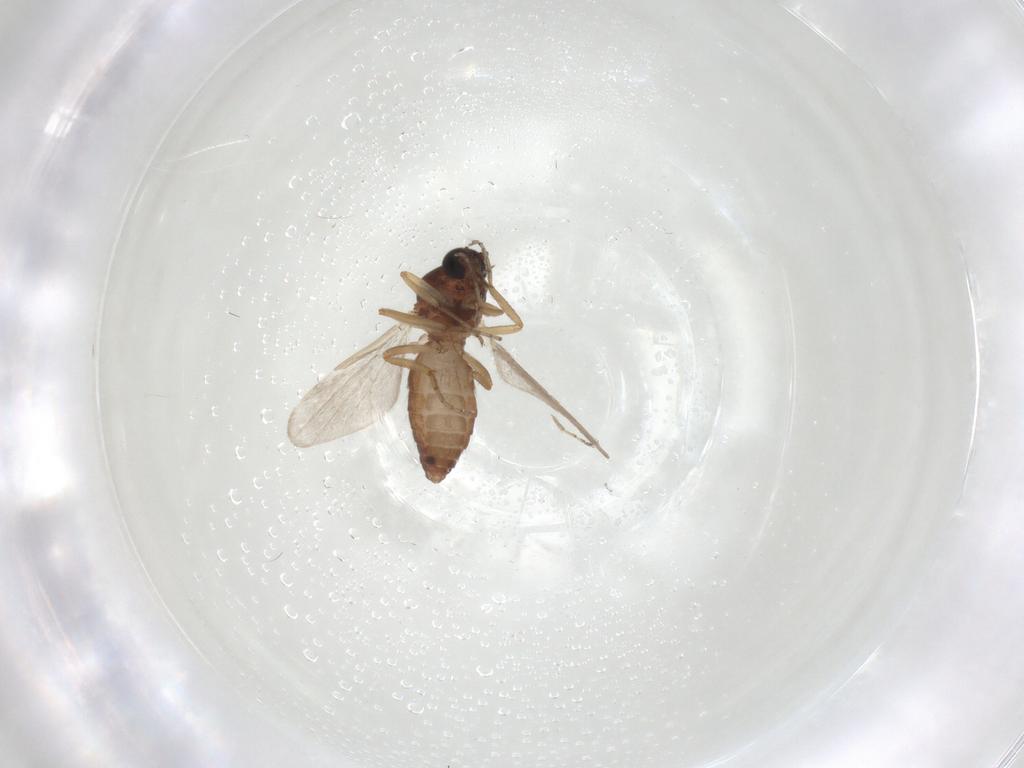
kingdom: Animalia
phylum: Arthropoda
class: Insecta
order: Diptera
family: Ceratopogonidae
